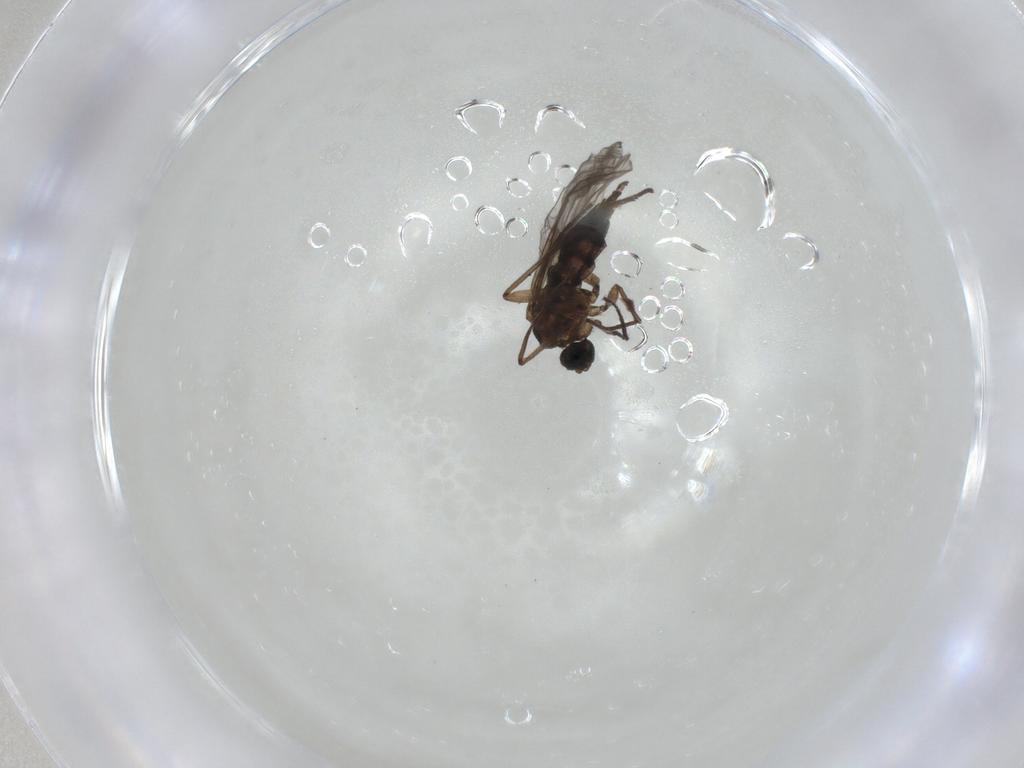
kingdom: Animalia
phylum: Arthropoda
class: Insecta
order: Diptera
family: Sciaridae
